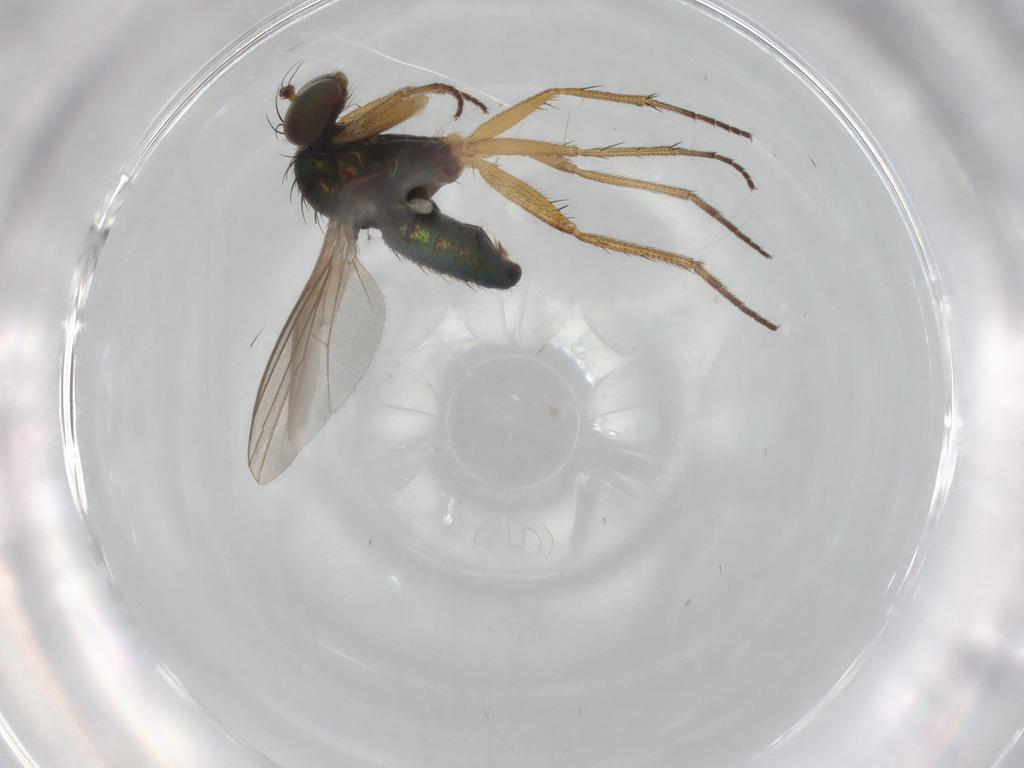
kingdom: Animalia
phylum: Arthropoda
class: Insecta
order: Diptera
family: Dolichopodidae
